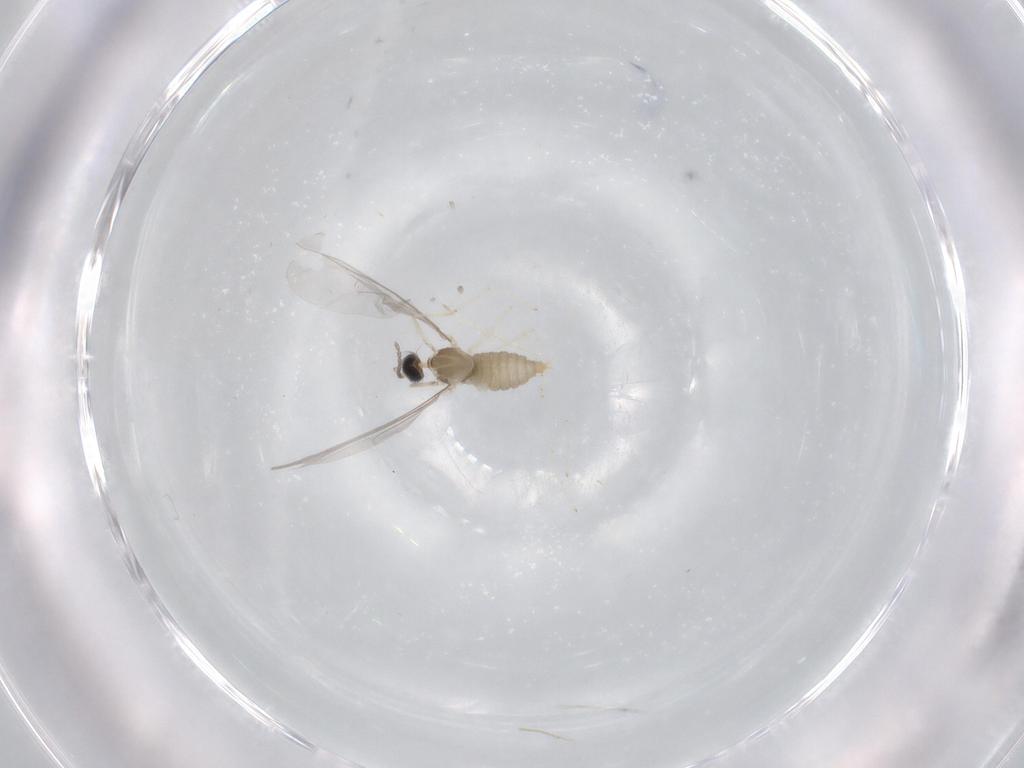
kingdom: Animalia
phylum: Arthropoda
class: Insecta
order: Diptera
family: Cecidomyiidae
